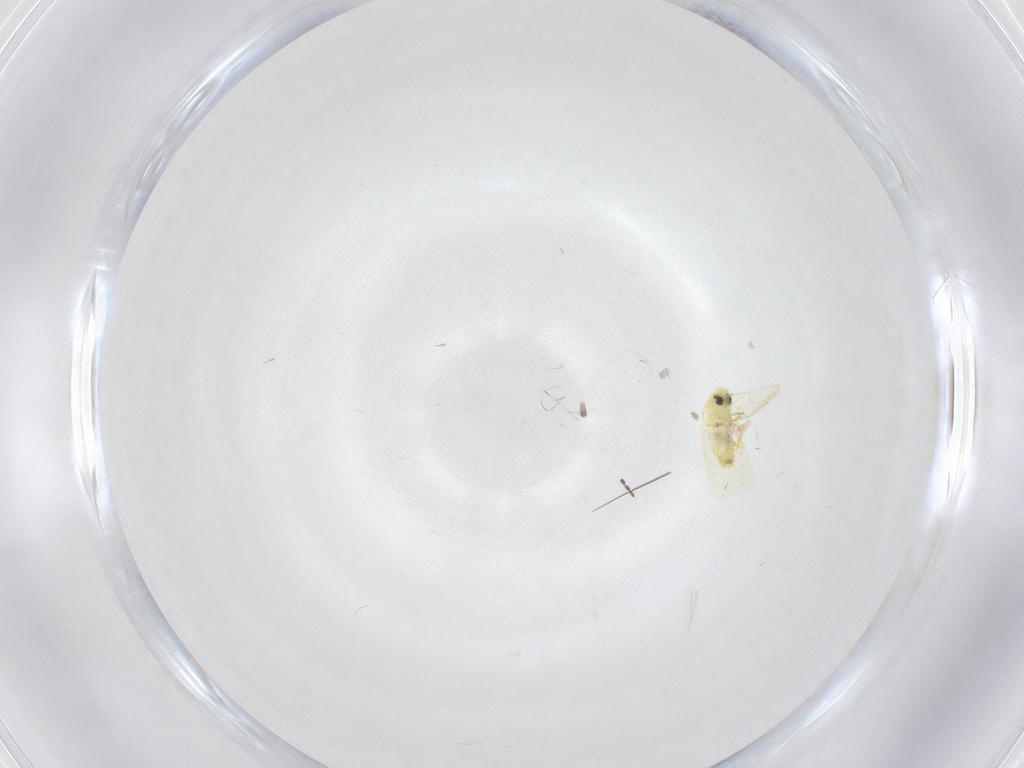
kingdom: Animalia
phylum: Arthropoda
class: Insecta
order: Hemiptera
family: Aleyrodidae
